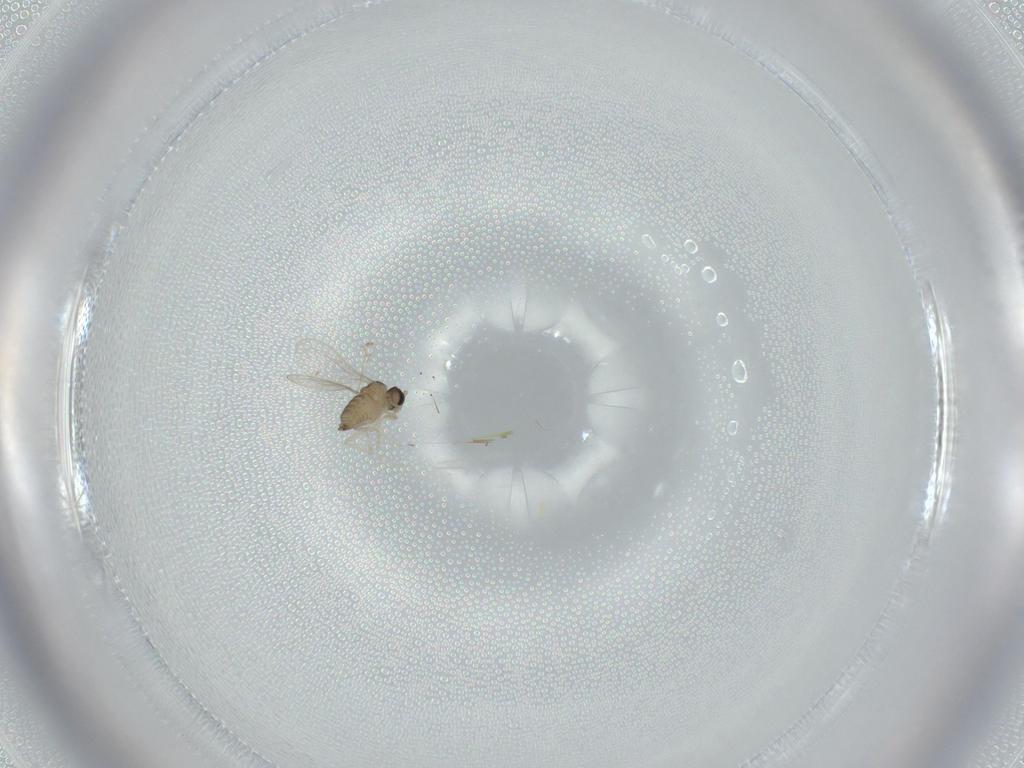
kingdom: Animalia
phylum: Arthropoda
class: Insecta
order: Diptera
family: Cecidomyiidae
